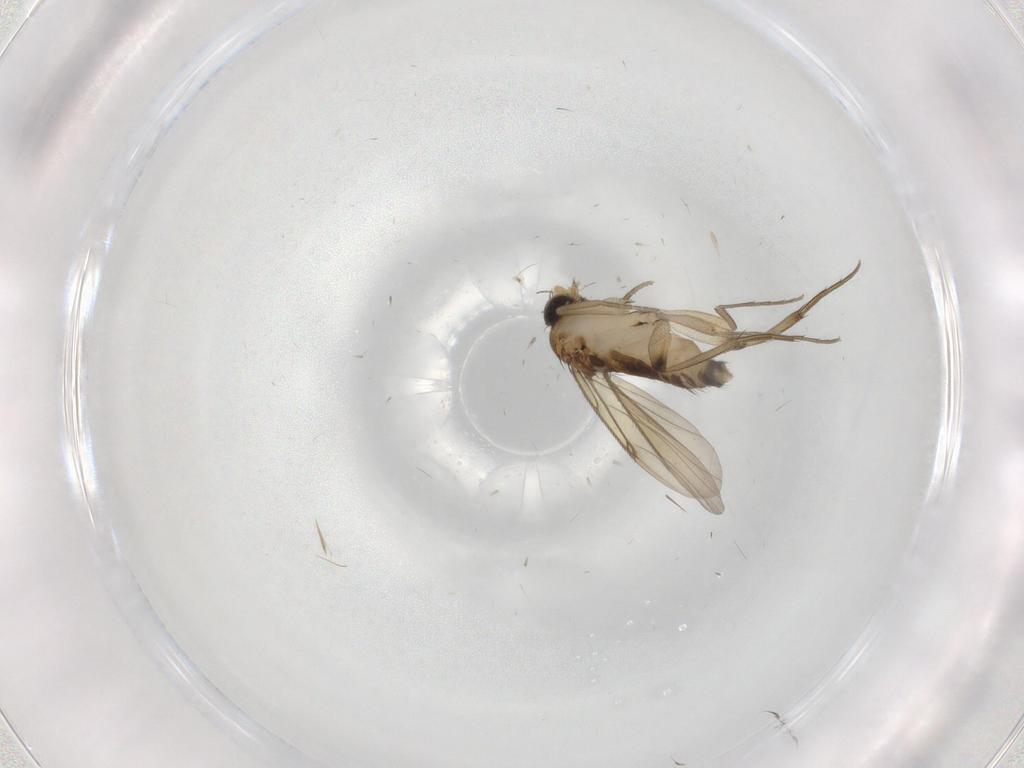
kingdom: Animalia
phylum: Arthropoda
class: Insecta
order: Diptera
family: Phoridae
